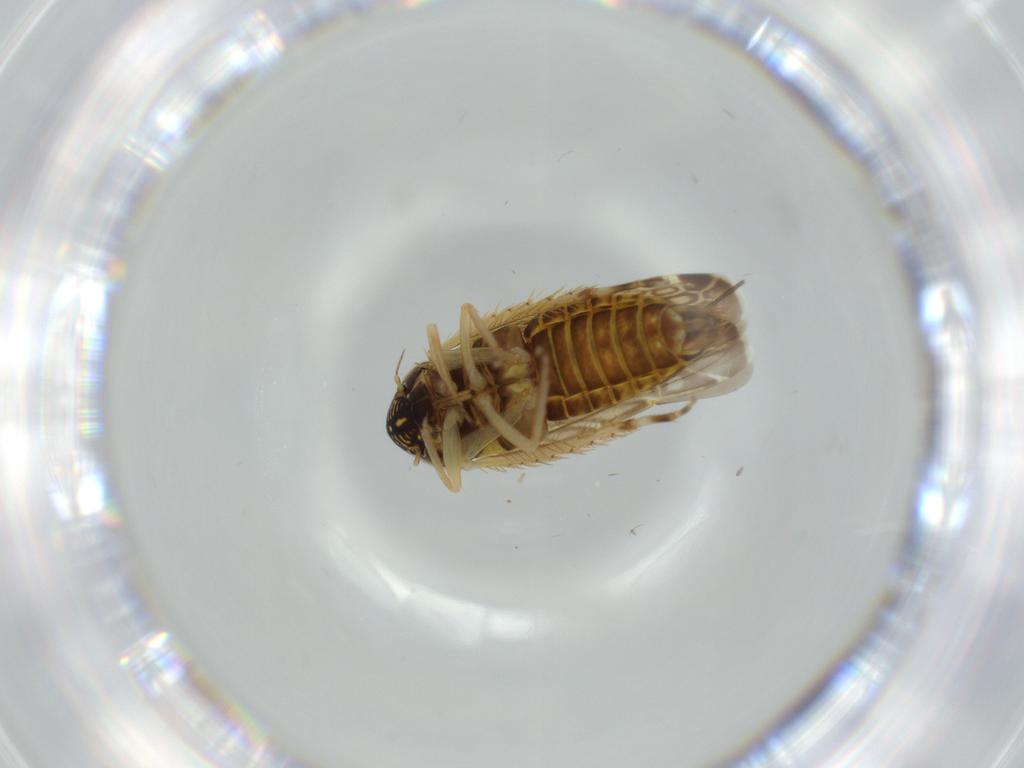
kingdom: Animalia
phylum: Arthropoda
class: Insecta
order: Hemiptera
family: Cicadellidae
